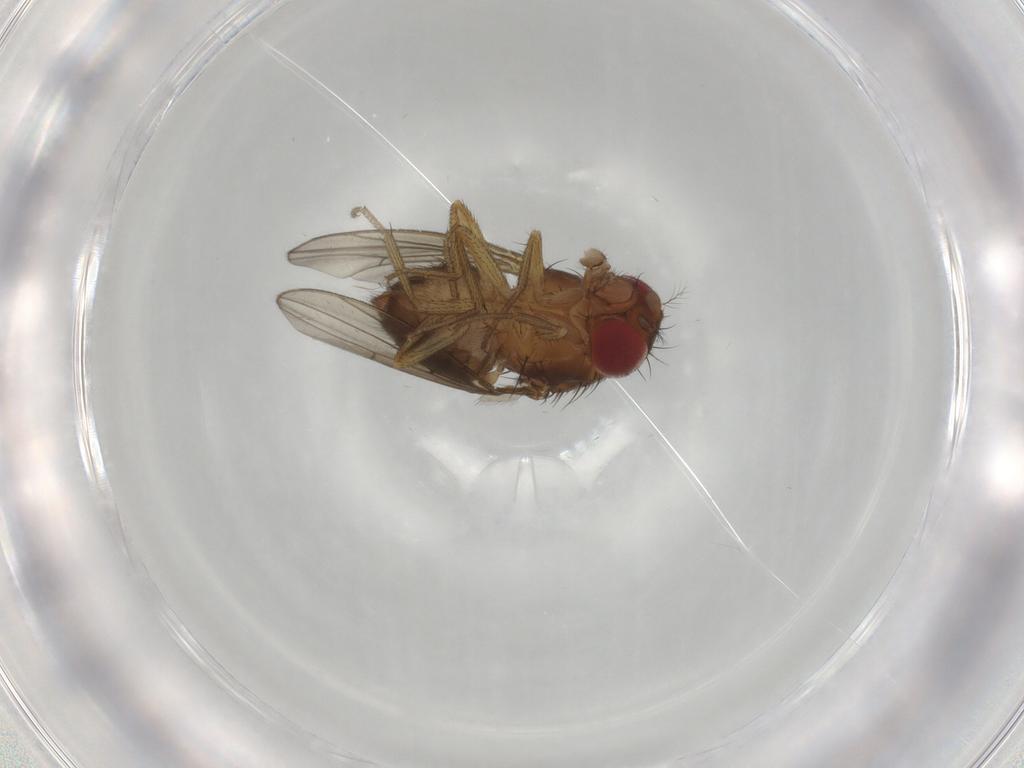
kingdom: Animalia
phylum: Arthropoda
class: Insecta
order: Diptera
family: Drosophilidae
